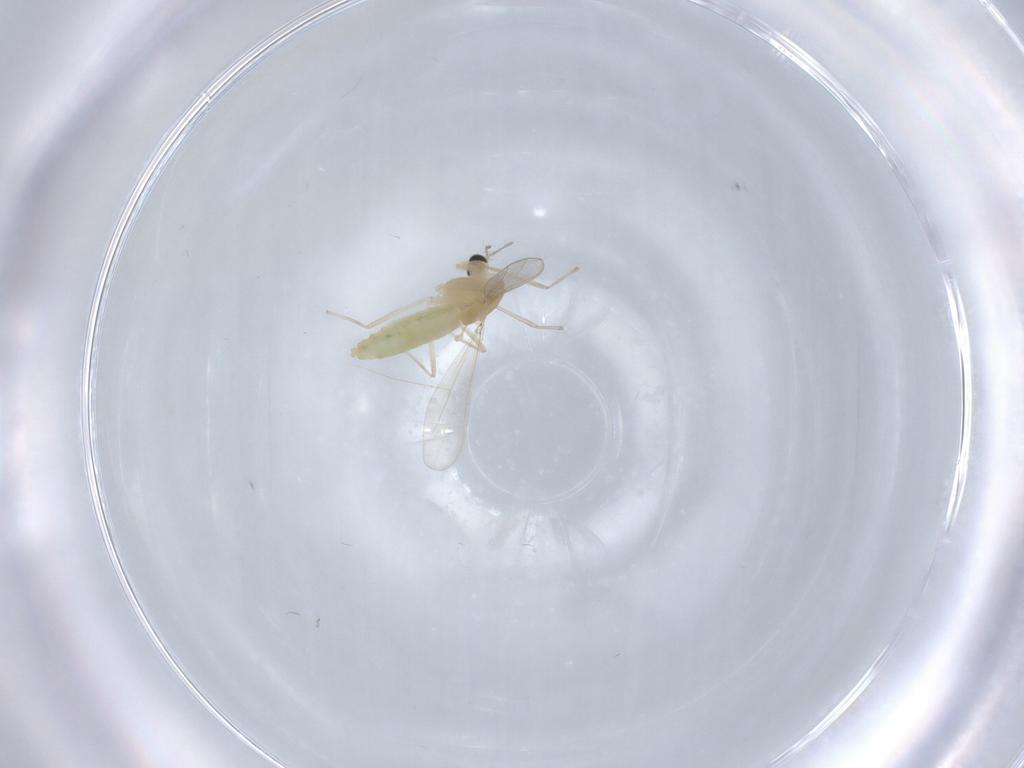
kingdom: Animalia
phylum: Arthropoda
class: Insecta
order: Diptera
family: Chironomidae
